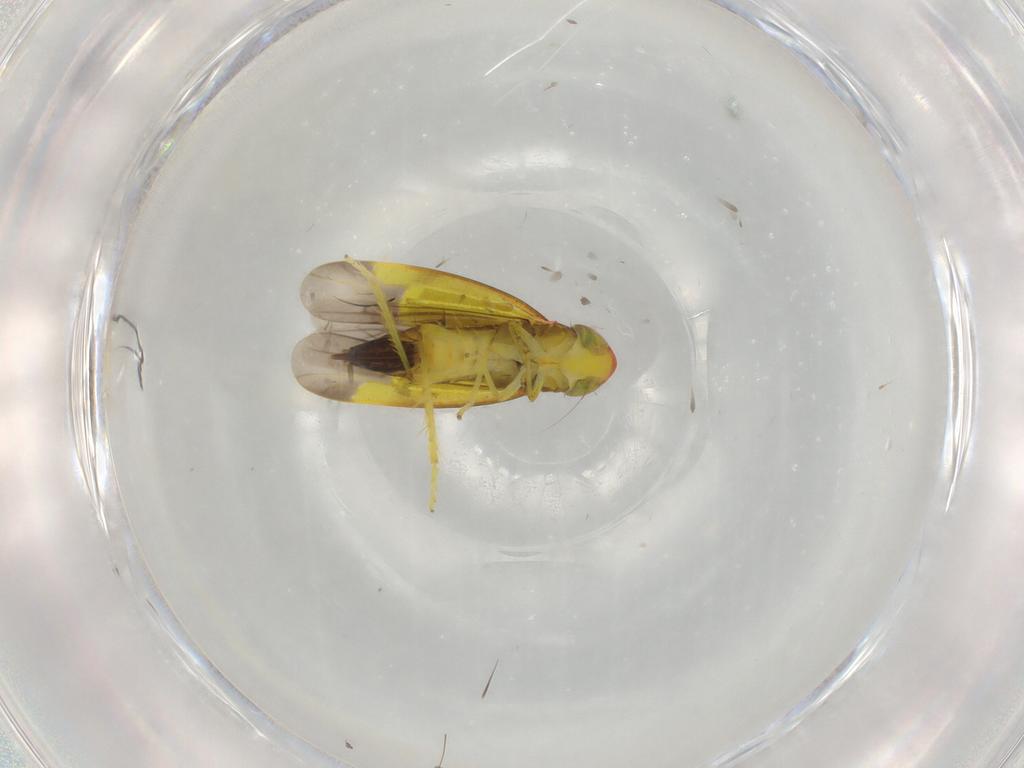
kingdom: Animalia
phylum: Arthropoda
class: Insecta
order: Hemiptera
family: Cicadellidae
